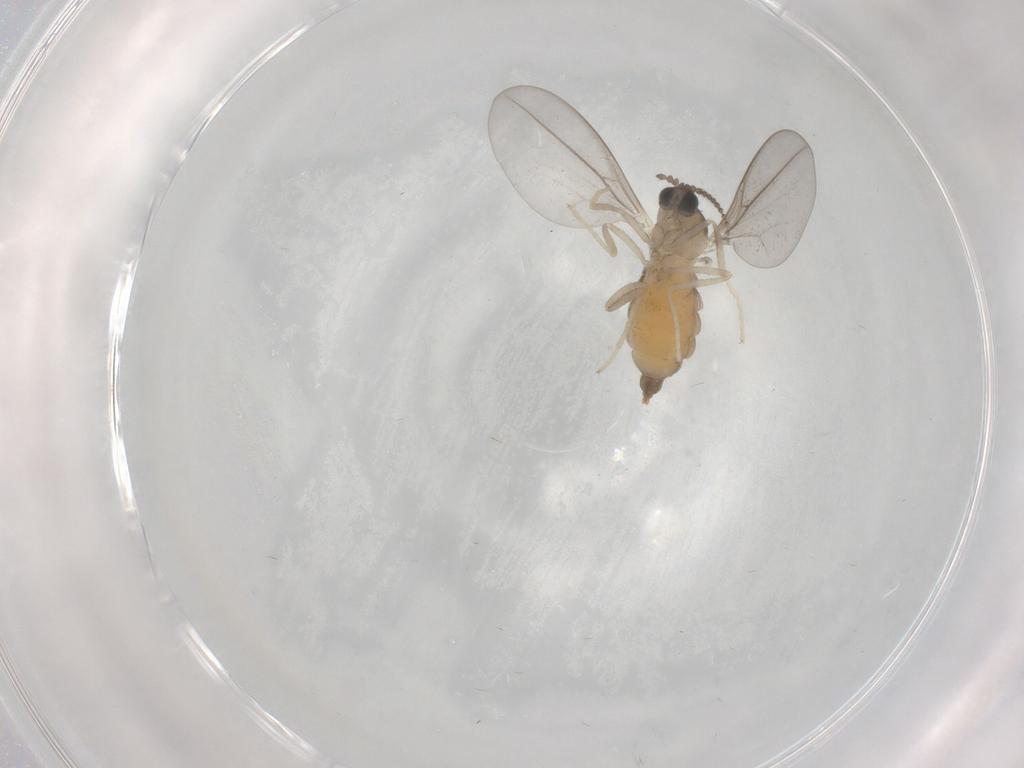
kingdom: Animalia
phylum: Arthropoda
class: Insecta
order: Diptera
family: Cecidomyiidae
